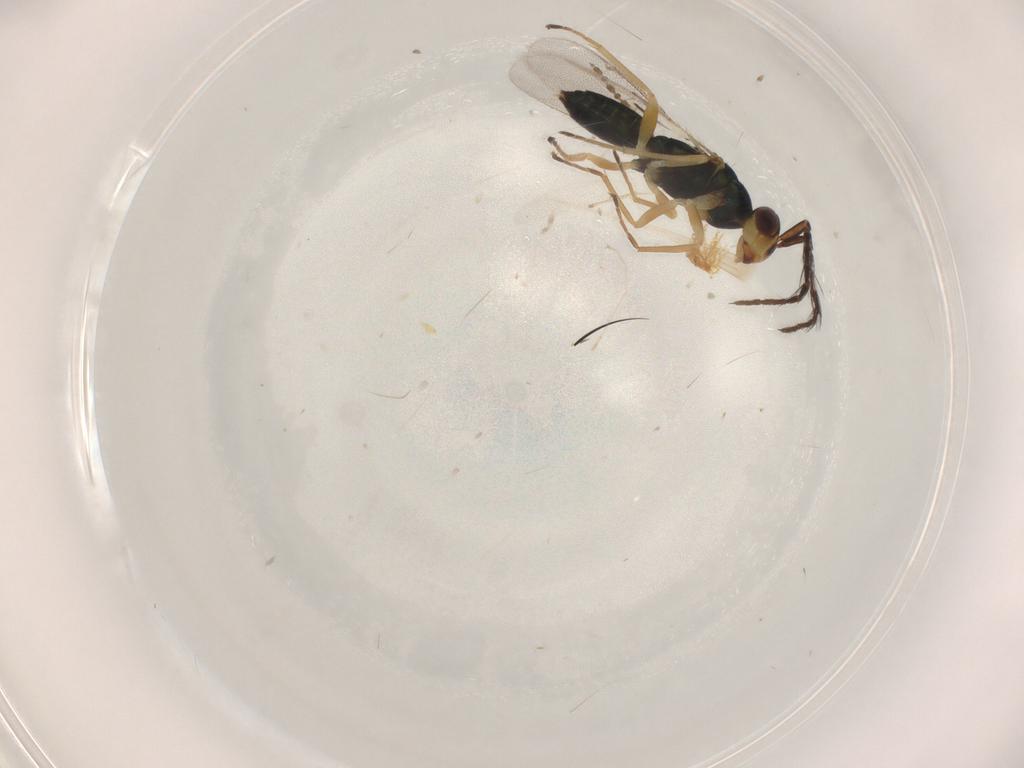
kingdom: Animalia
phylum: Arthropoda
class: Insecta
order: Hymenoptera
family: Eulophidae
